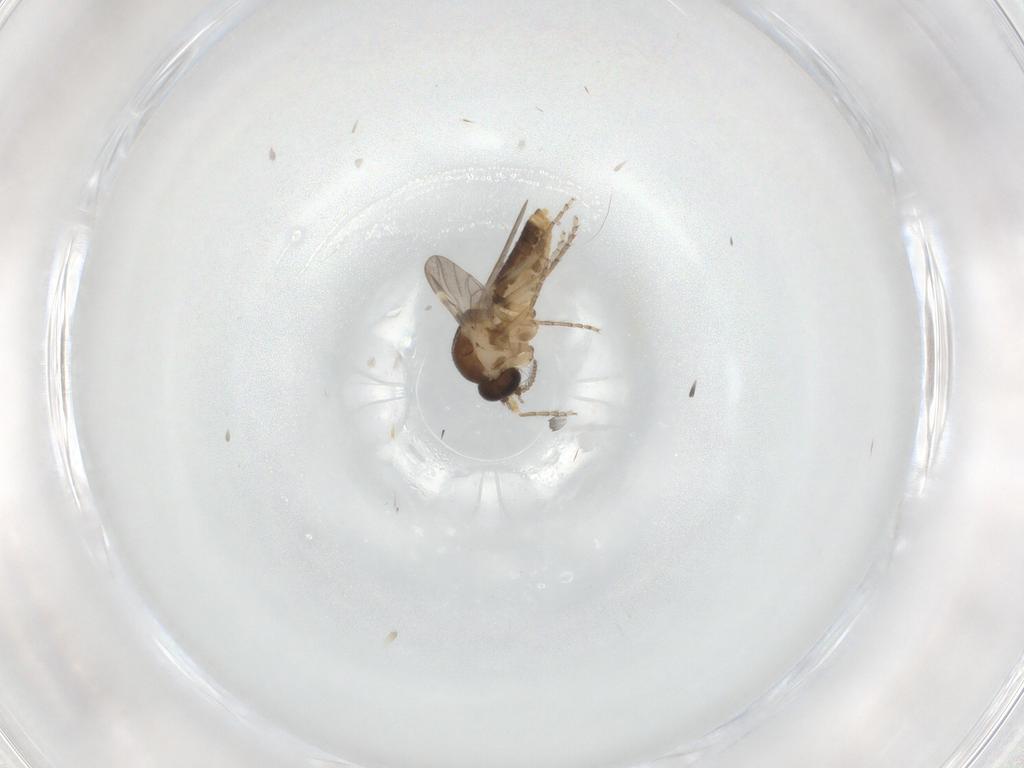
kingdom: Animalia
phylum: Arthropoda
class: Insecta
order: Diptera
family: Ceratopogonidae
